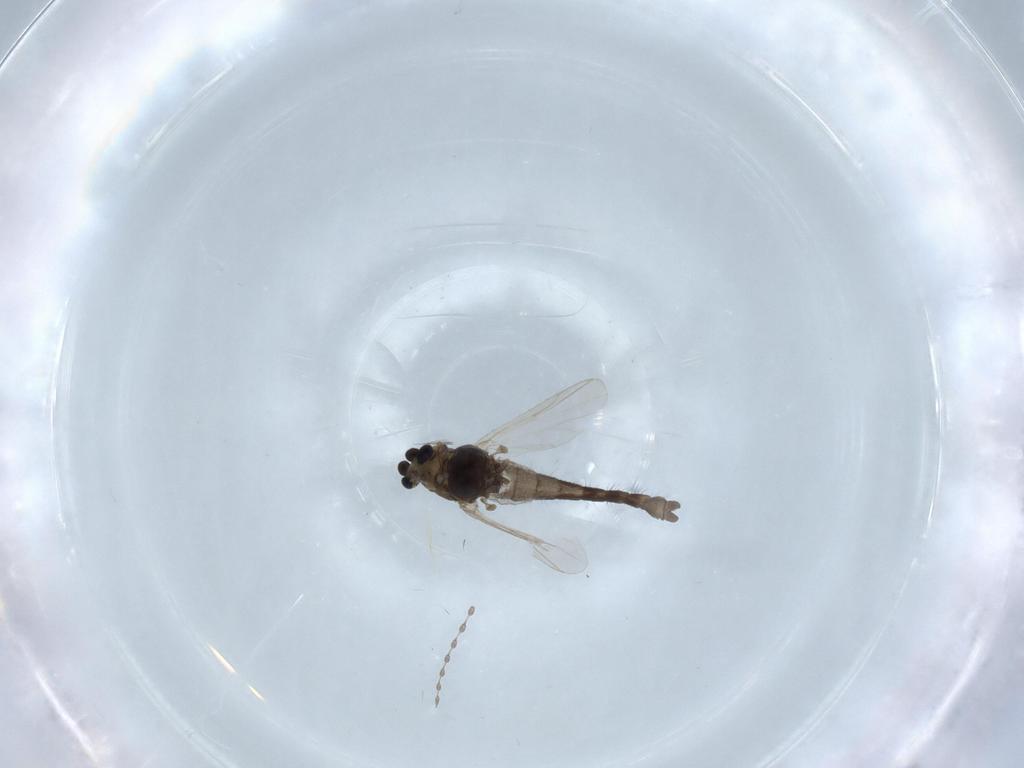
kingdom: Animalia
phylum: Arthropoda
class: Insecta
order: Diptera
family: Chironomidae
